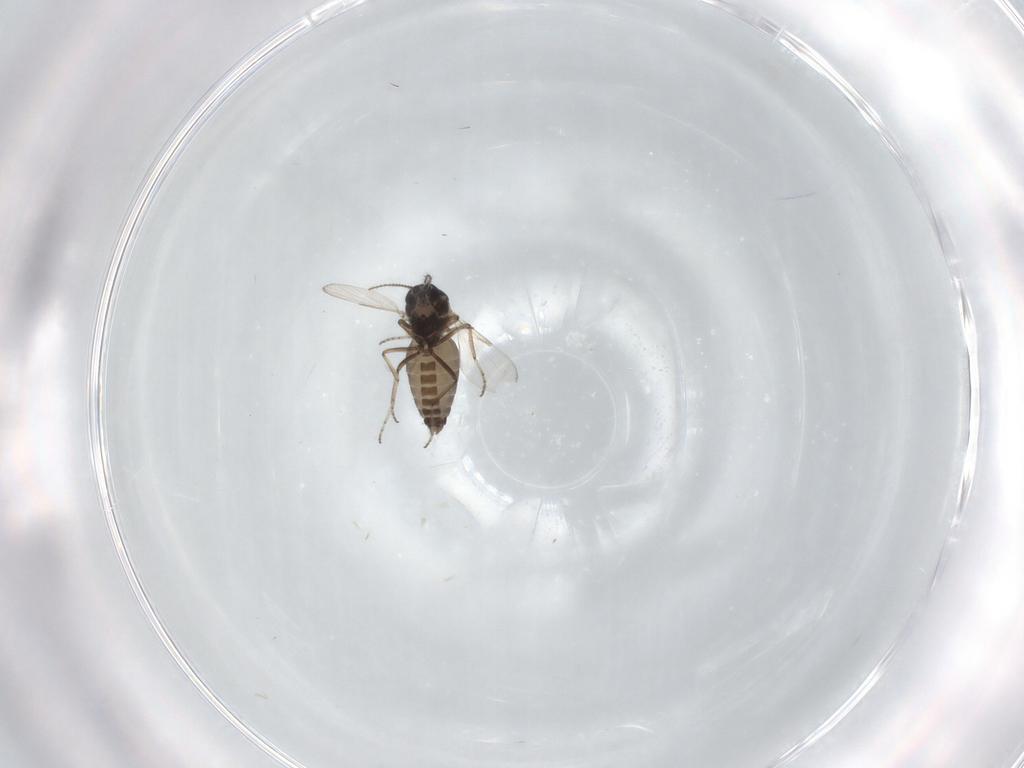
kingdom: Animalia
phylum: Arthropoda
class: Insecta
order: Diptera
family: Ceratopogonidae
